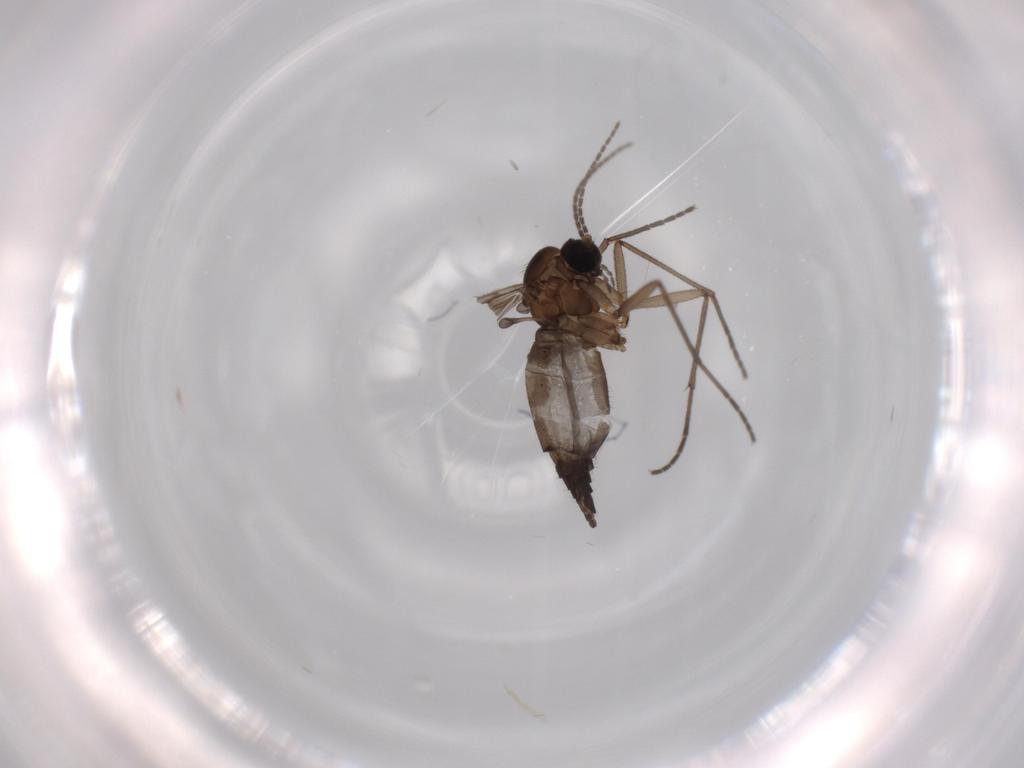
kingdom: Animalia
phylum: Arthropoda
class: Insecta
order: Diptera
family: Sciaridae
